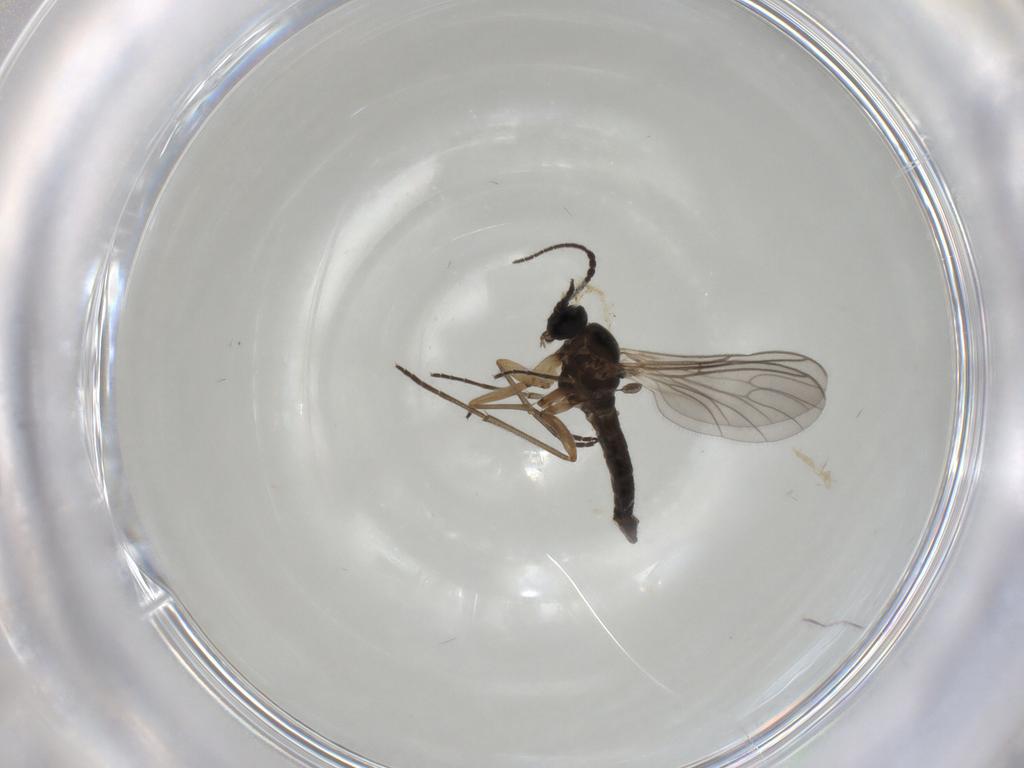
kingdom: Animalia
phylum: Arthropoda
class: Insecta
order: Diptera
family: Sciaridae
